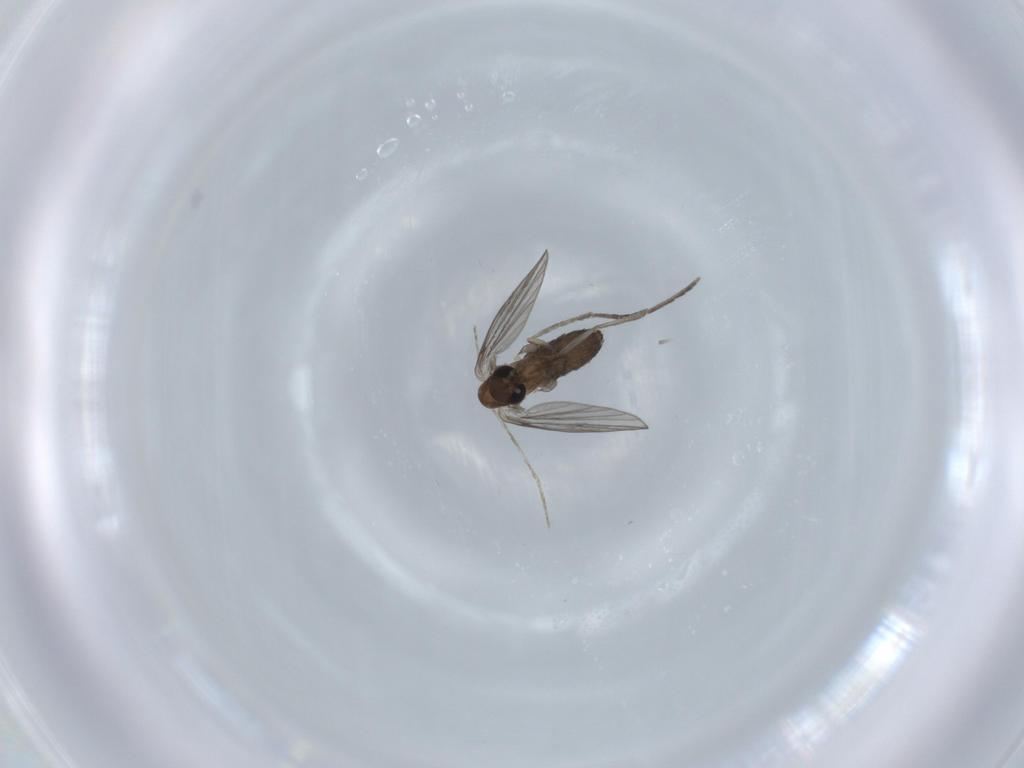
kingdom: Animalia
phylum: Arthropoda
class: Insecta
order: Diptera
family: Psychodidae
